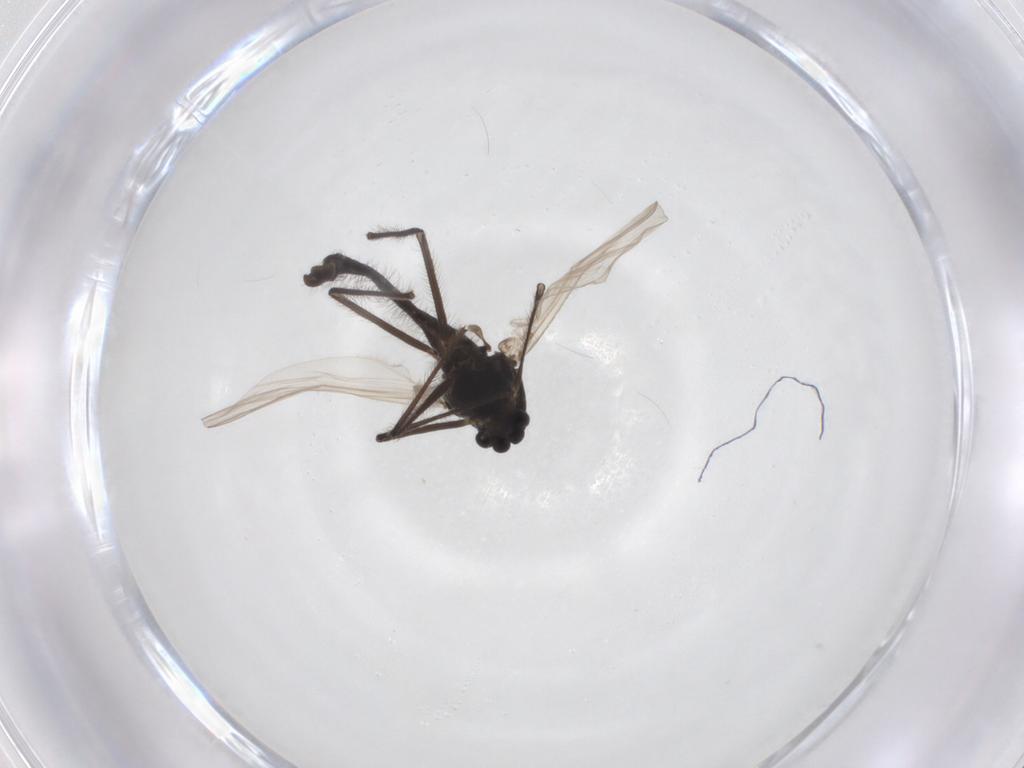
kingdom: Animalia
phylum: Arthropoda
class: Insecta
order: Diptera
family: Chironomidae
